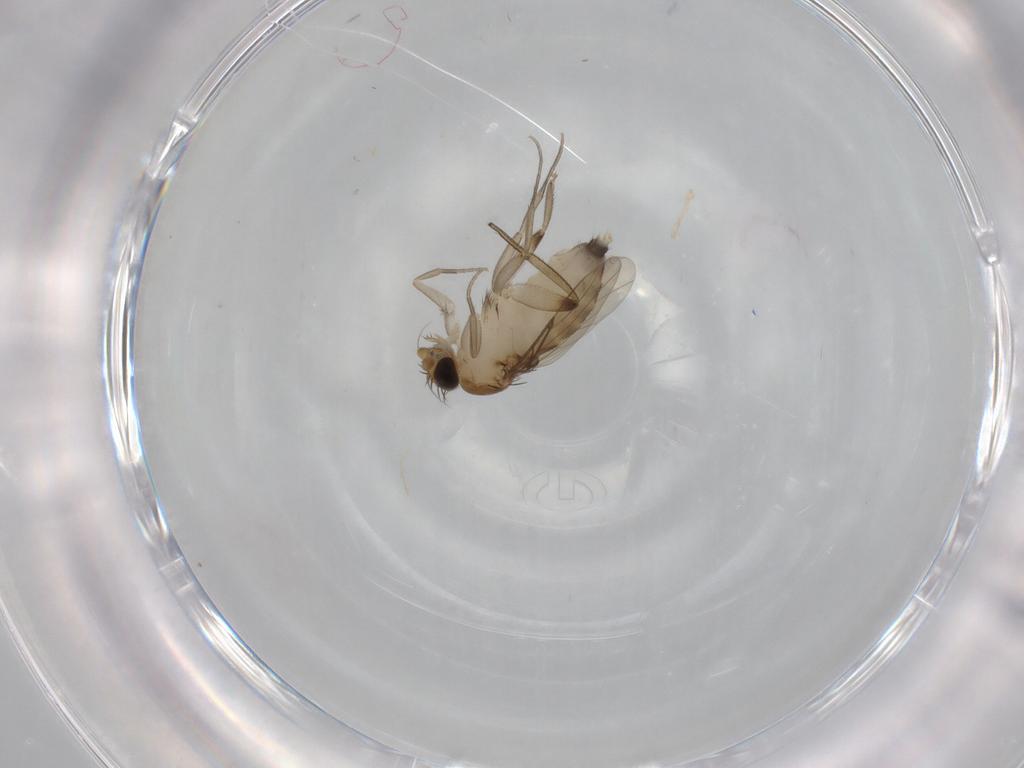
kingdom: Animalia
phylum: Arthropoda
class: Insecta
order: Diptera
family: Phoridae
